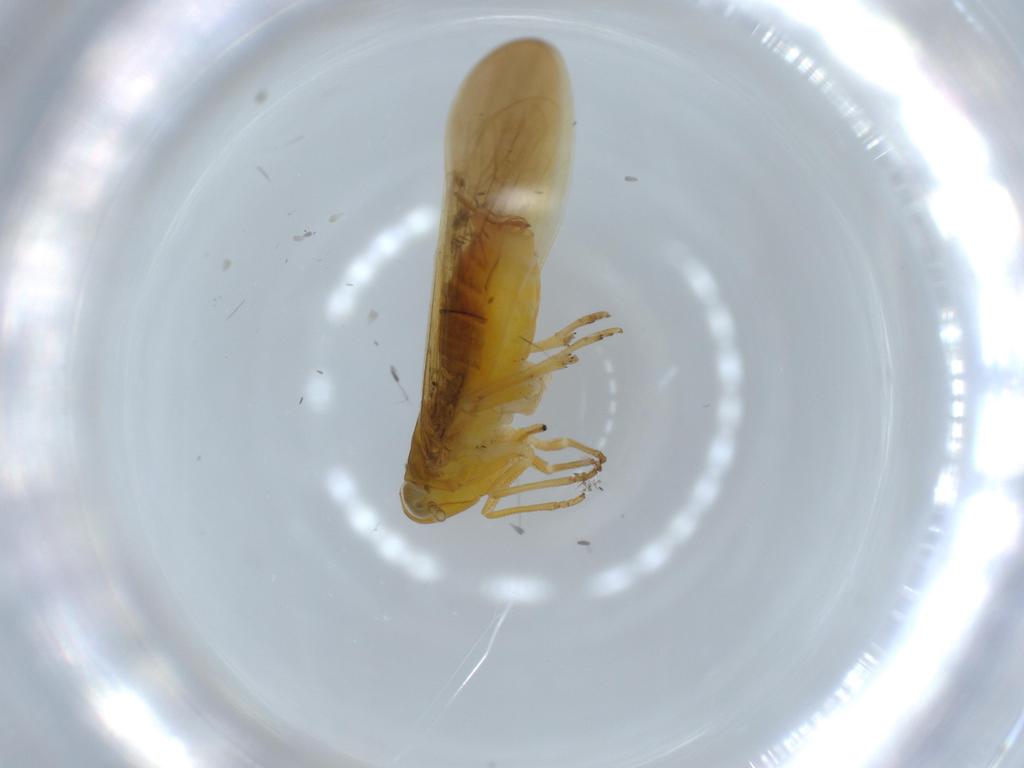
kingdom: Animalia
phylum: Arthropoda
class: Insecta
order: Hemiptera
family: Delphacidae
